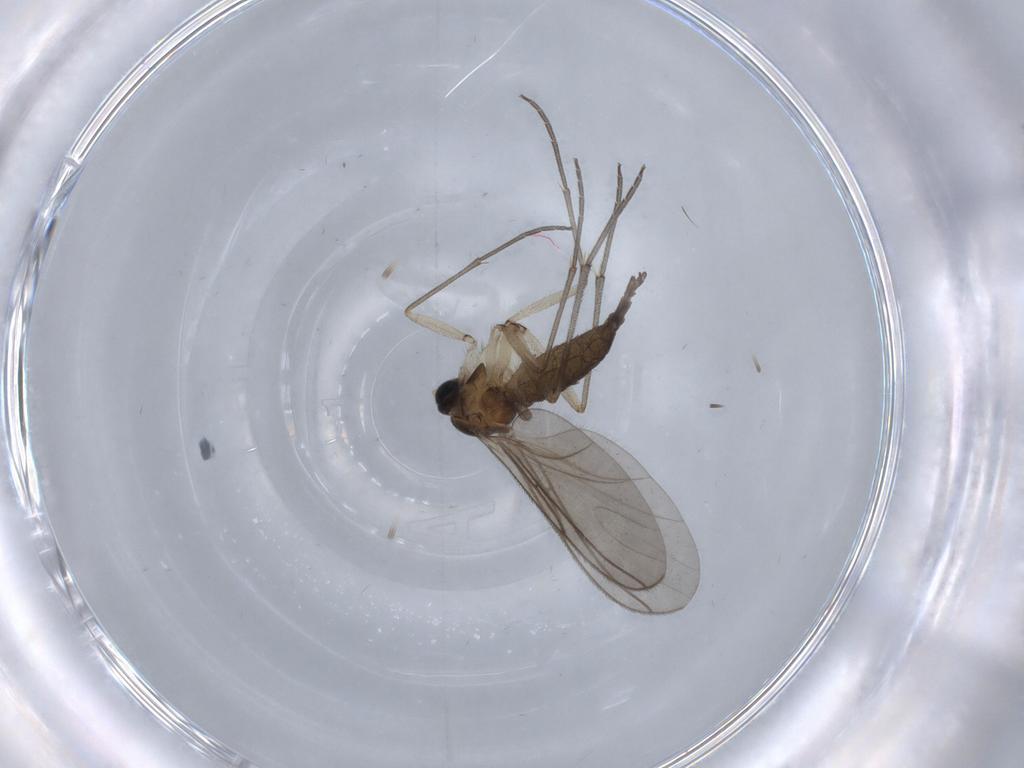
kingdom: Animalia
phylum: Arthropoda
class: Insecta
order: Diptera
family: Sciaridae
